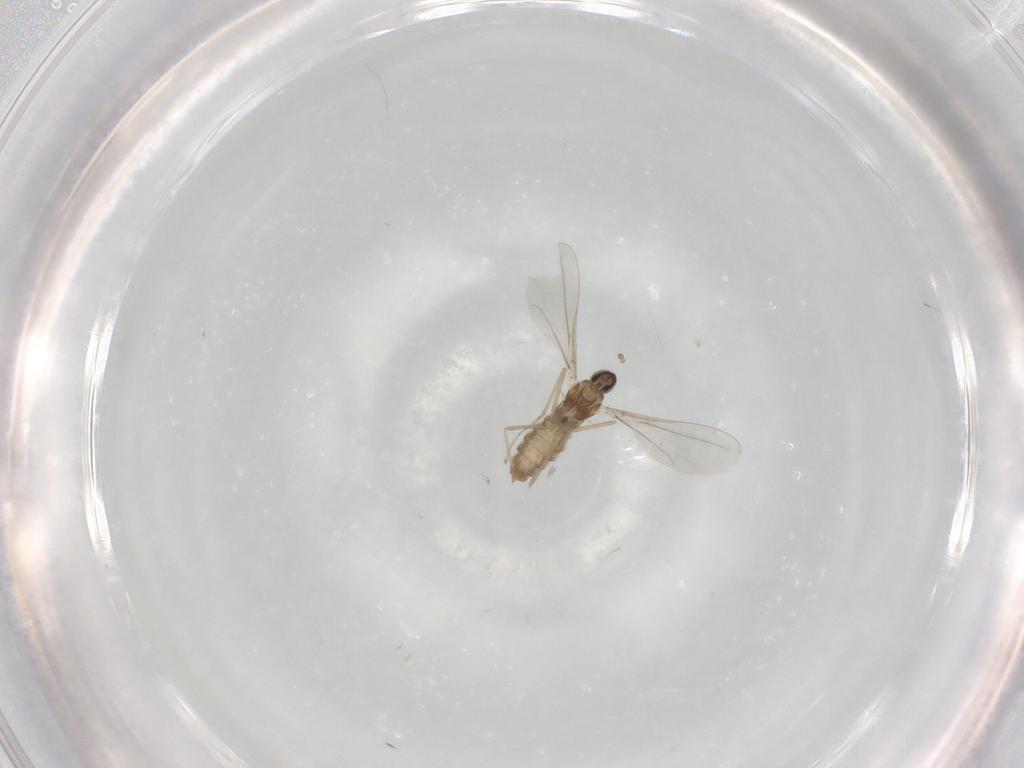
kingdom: Animalia
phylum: Arthropoda
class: Insecta
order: Diptera
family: Cecidomyiidae
